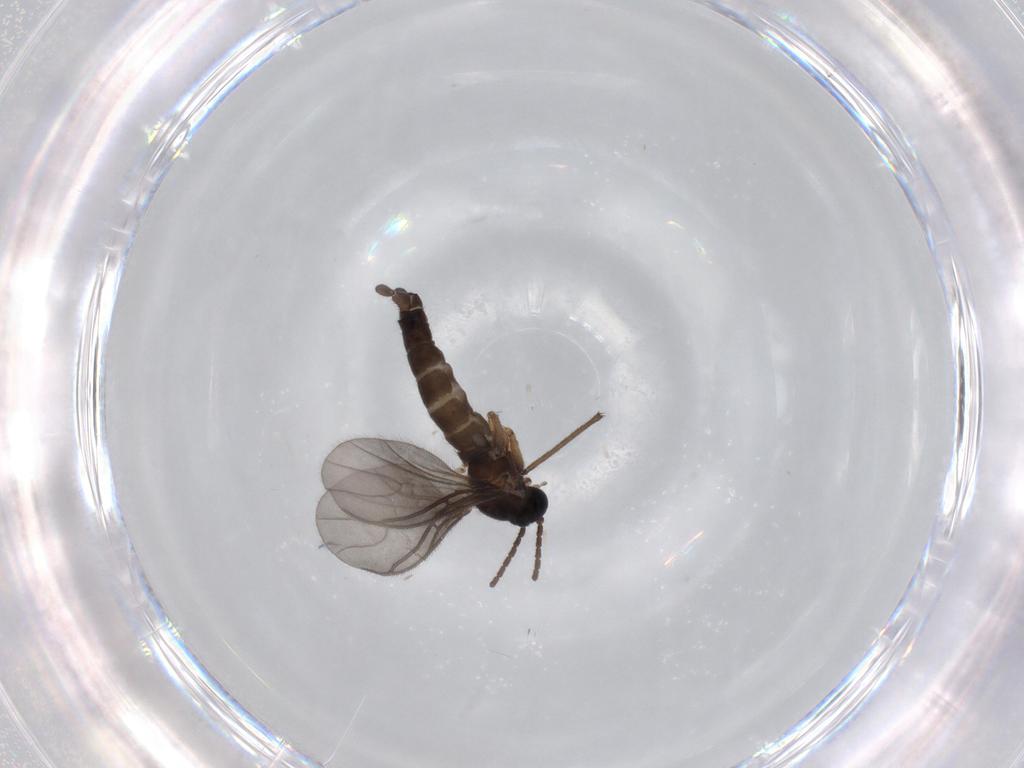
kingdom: Animalia
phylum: Arthropoda
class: Insecta
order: Diptera
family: Sciaridae
